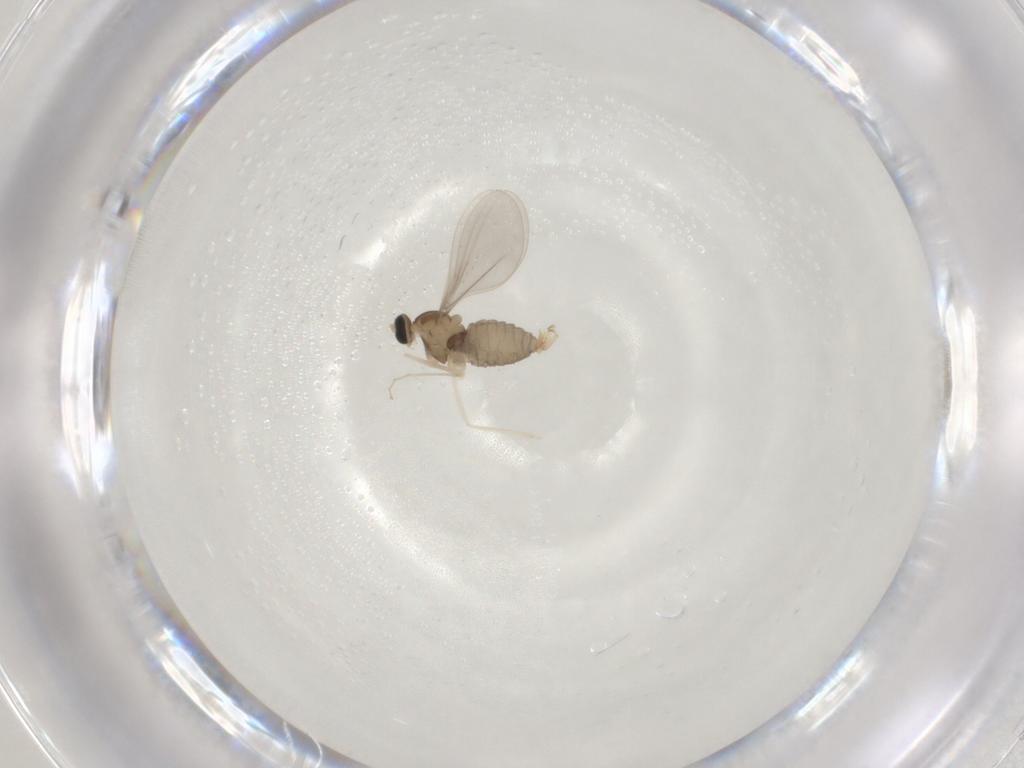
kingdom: Animalia
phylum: Arthropoda
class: Insecta
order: Diptera
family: Cecidomyiidae
